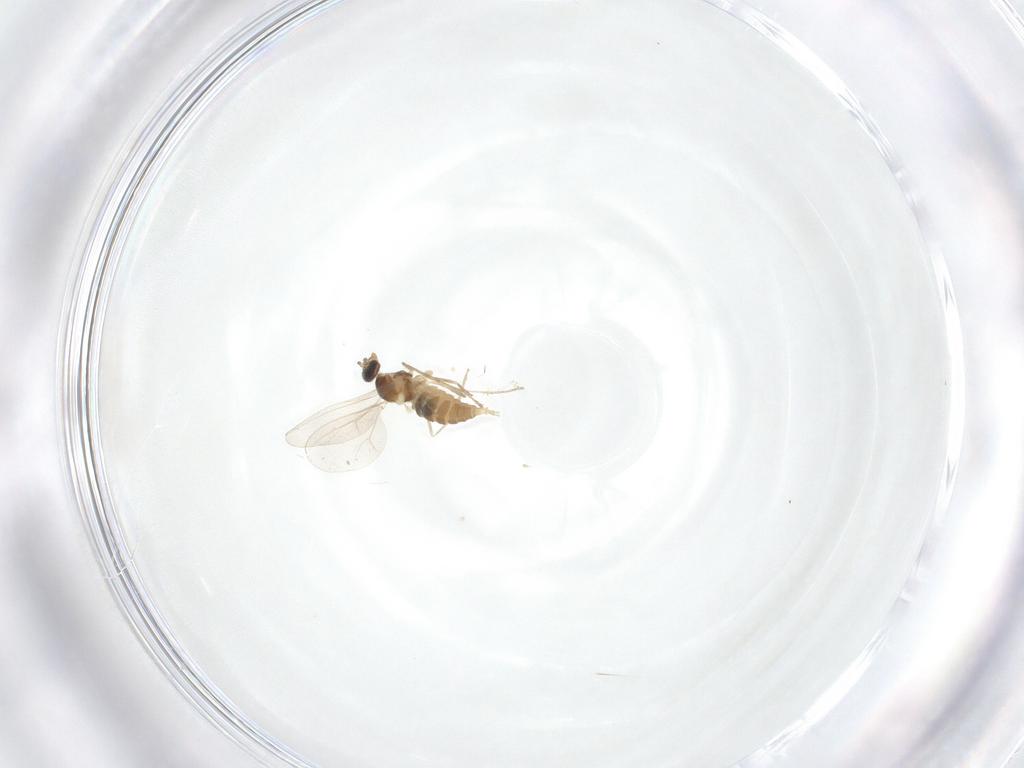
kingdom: Animalia
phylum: Arthropoda
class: Insecta
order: Diptera
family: Cecidomyiidae
